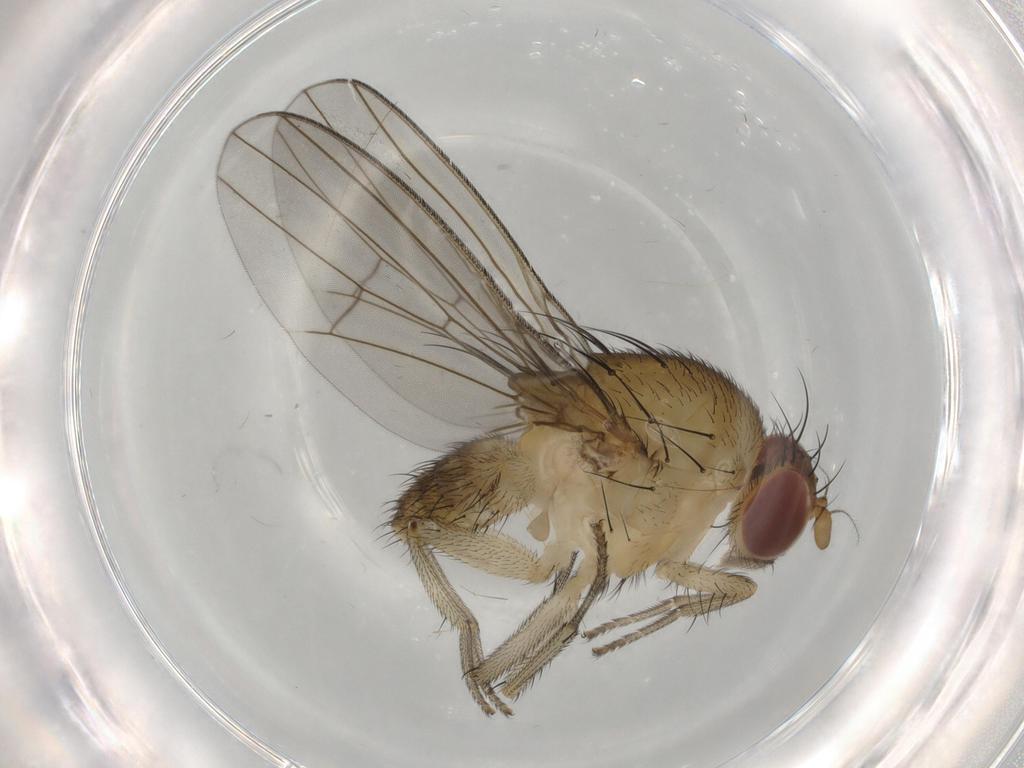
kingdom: Animalia
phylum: Arthropoda
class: Insecta
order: Diptera
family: Lauxaniidae
